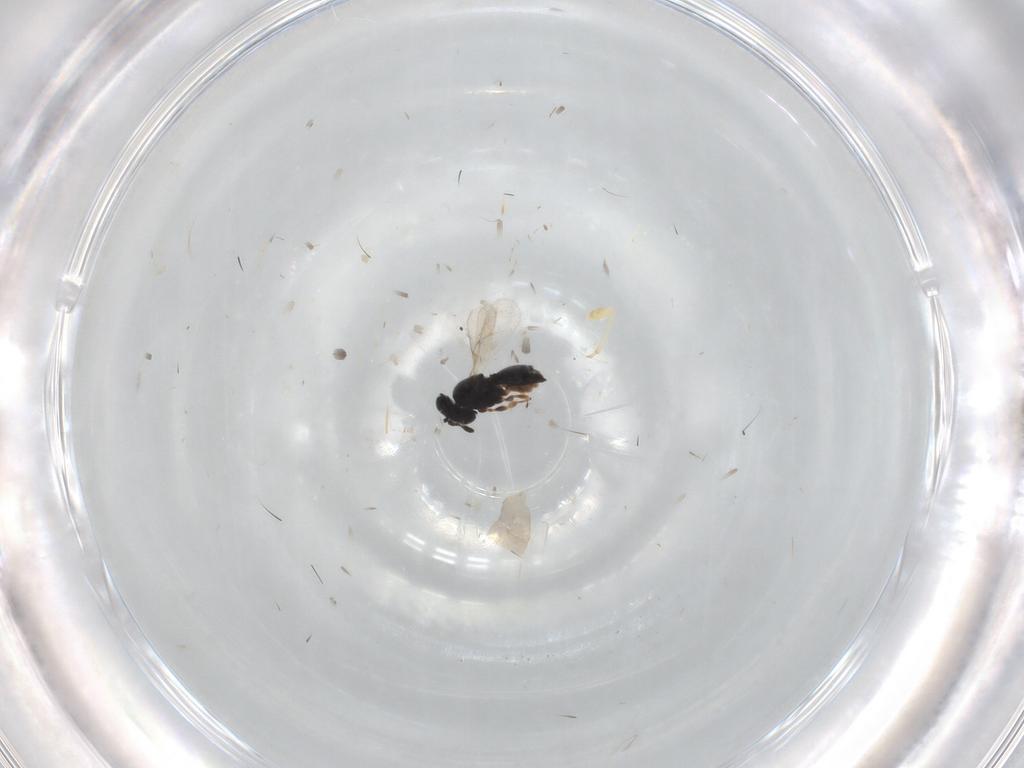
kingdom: Animalia
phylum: Arthropoda
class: Insecta
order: Hymenoptera
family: Scelionidae
